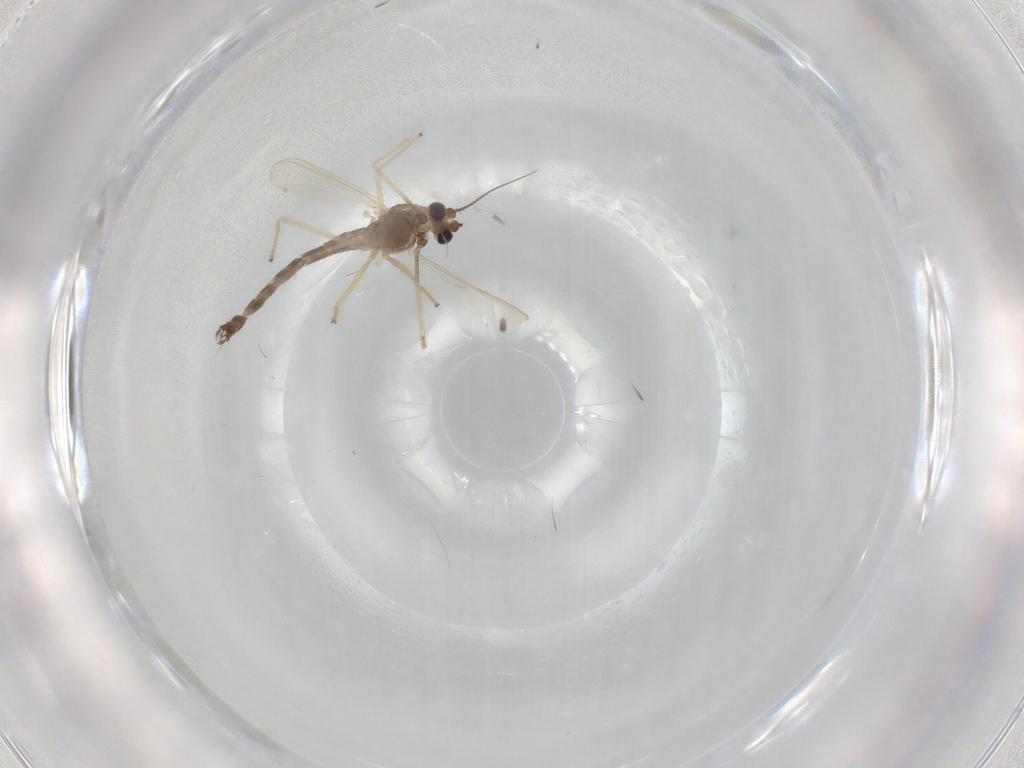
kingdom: Animalia
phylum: Arthropoda
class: Insecta
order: Diptera
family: Chironomidae
